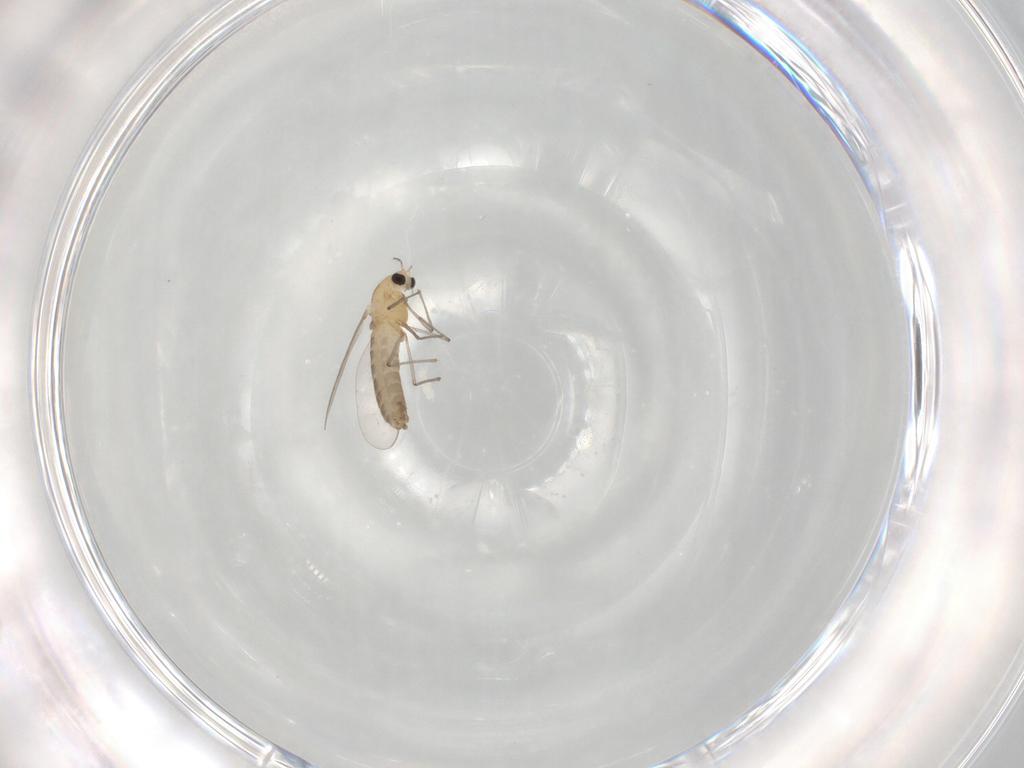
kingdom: Animalia
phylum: Arthropoda
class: Insecta
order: Diptera
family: Chironomidae
